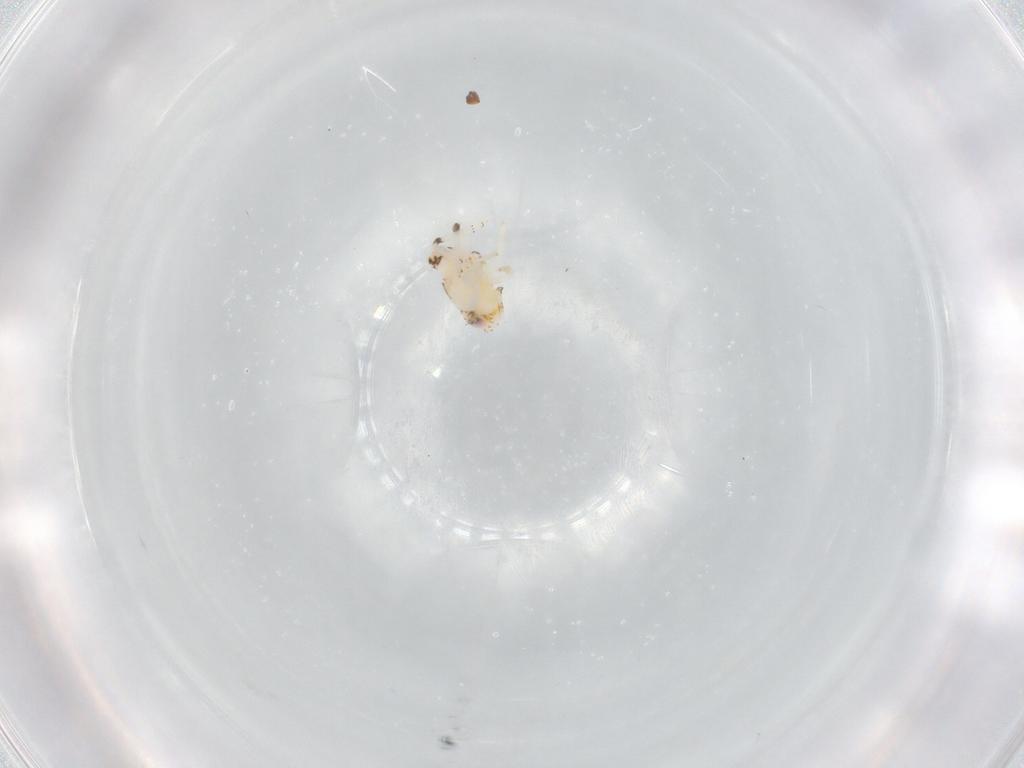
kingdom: Animalia
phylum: Arthropoda
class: Insecta
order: Hemiptera
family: Nogodinidae
